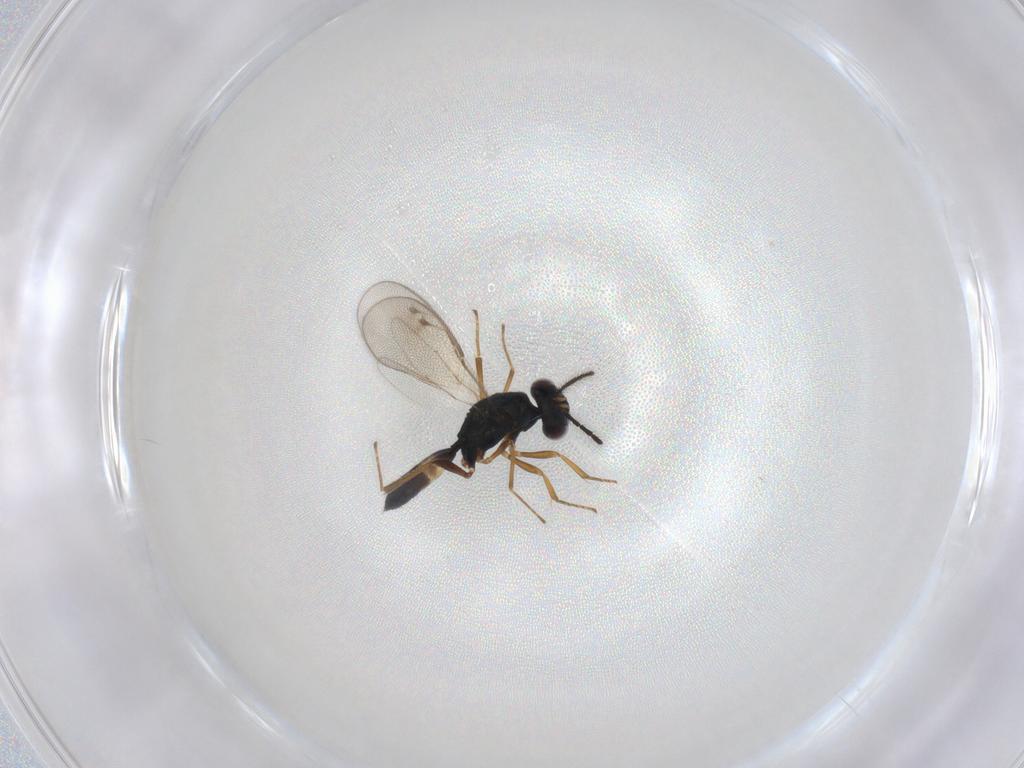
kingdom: Animalia
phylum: Arthropoda
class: Insecta
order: Hymenoptera
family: Pteromalidae
